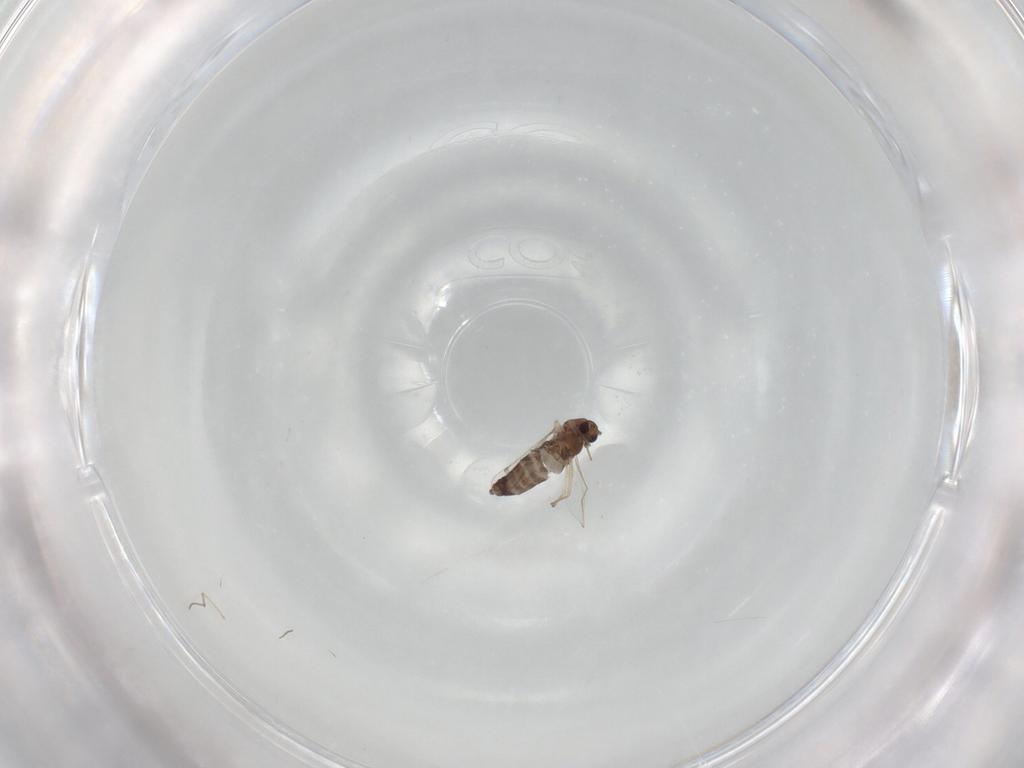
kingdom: Animalia
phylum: Arthropoda
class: Insecta
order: Diptera
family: Chironomidae
